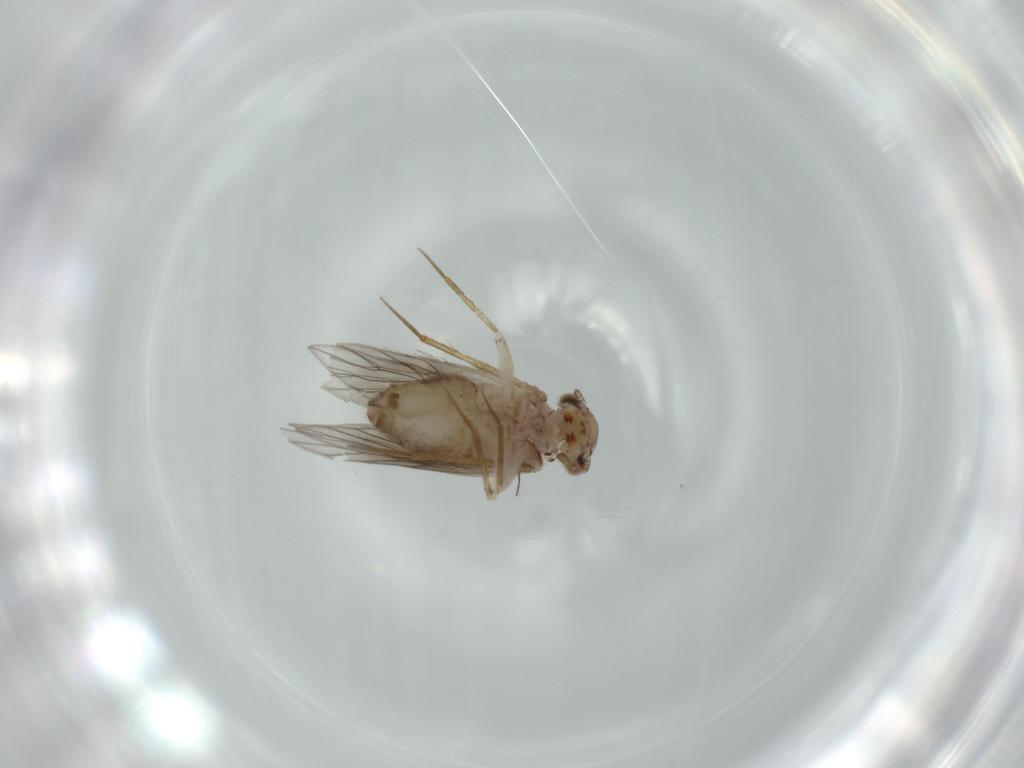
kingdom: Animalia
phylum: Arthropoda
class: Insecta
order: Psocodea
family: Lepidopsocidae
